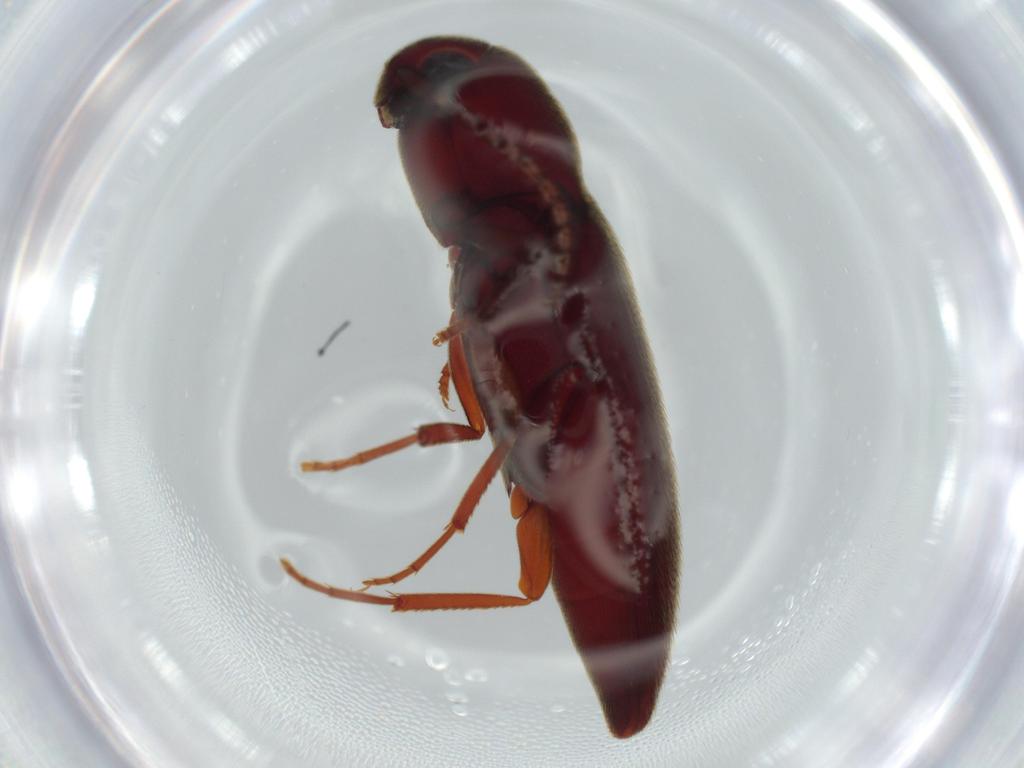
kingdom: Animalia
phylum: Arthropoda
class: Insecta
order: Coleoptera
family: Eucnemidae
